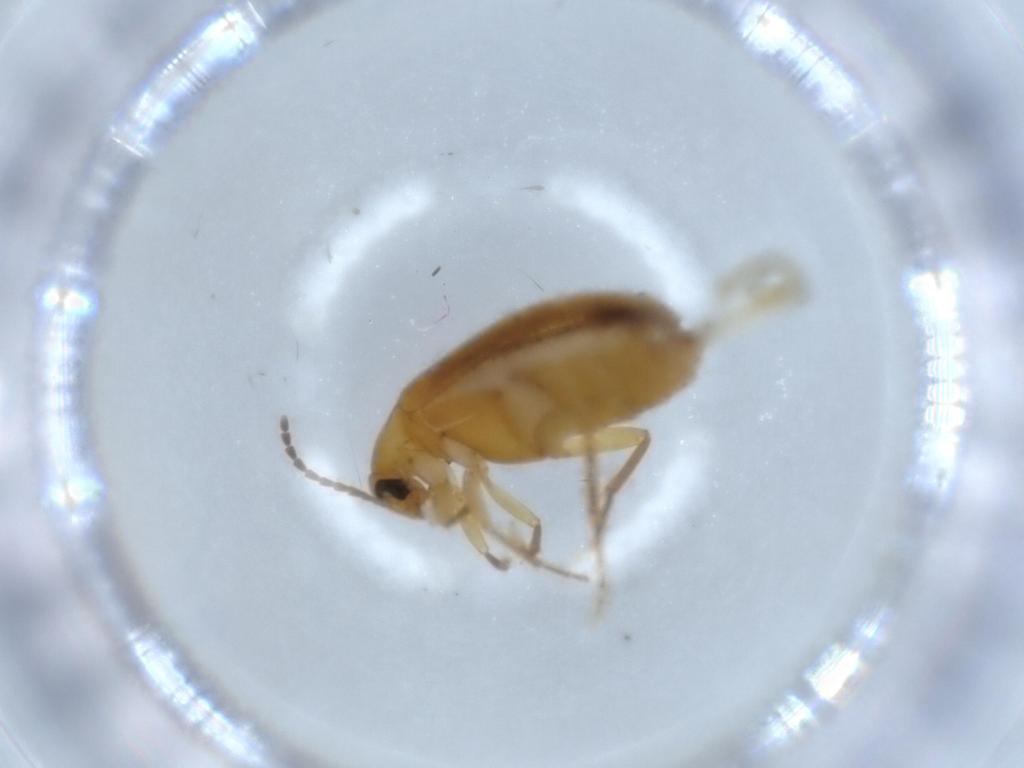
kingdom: Animalia
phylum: Arthropoda
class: Insecta
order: Coleoptera
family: Scraptiidae
